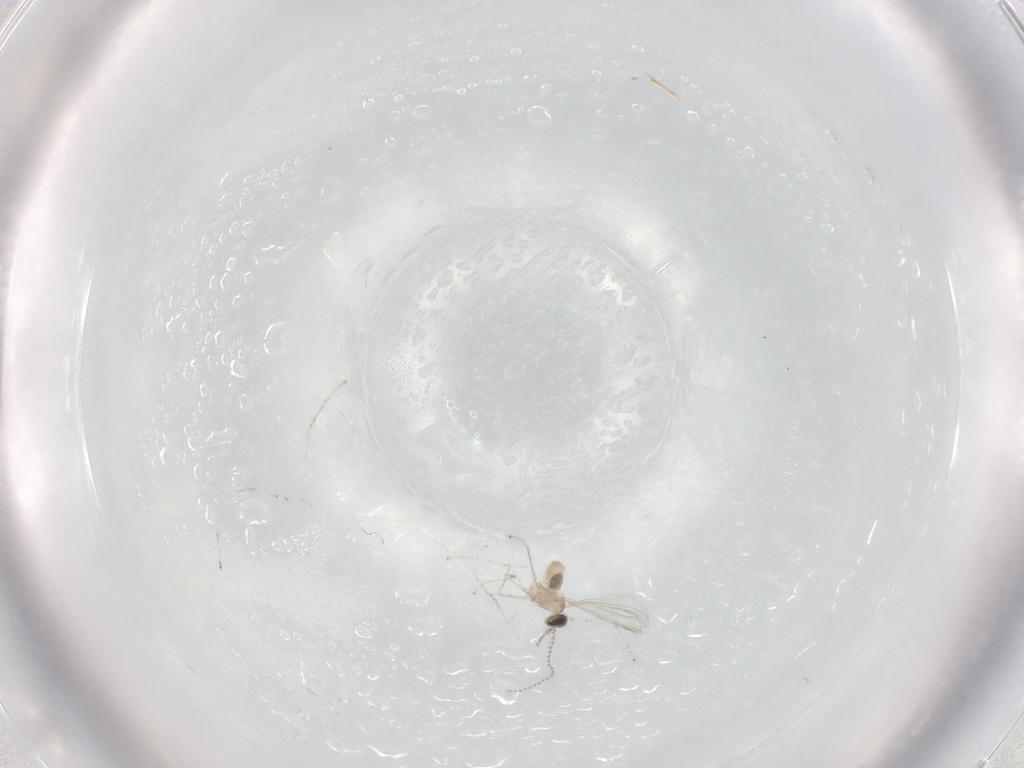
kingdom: Animalia
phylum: Arthropoda
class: Insecta
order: Diptera
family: Cecidomyiidae
